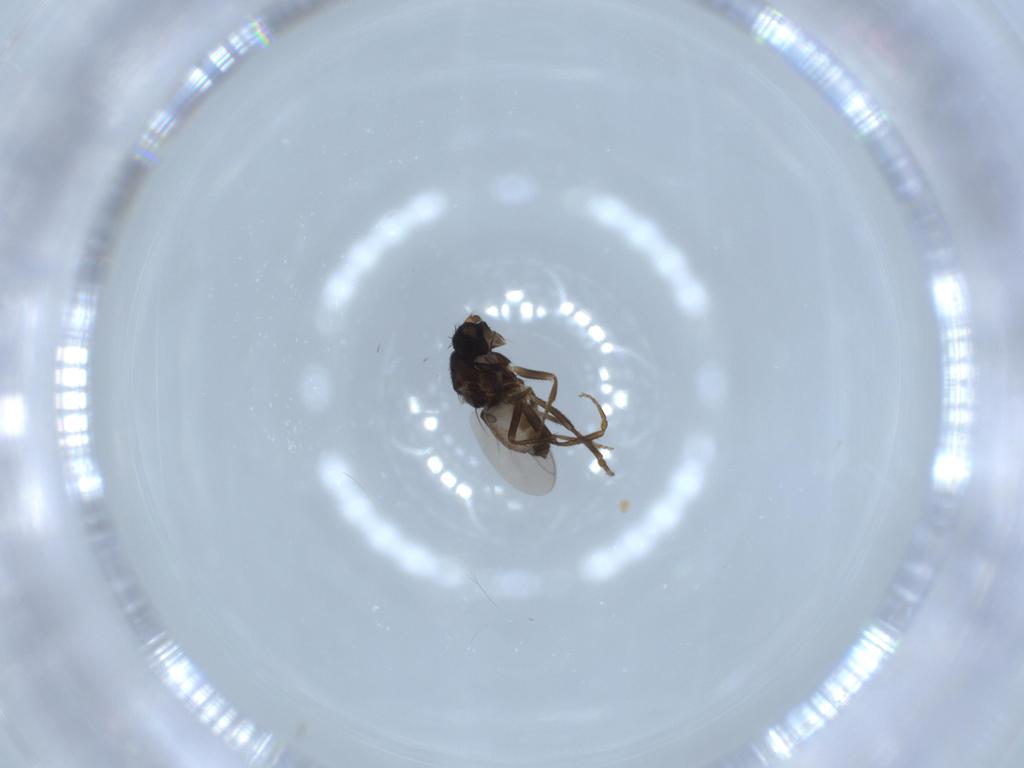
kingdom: Animalia
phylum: Arthropoda
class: Insecta
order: Diptera
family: Sphaeroceridae
